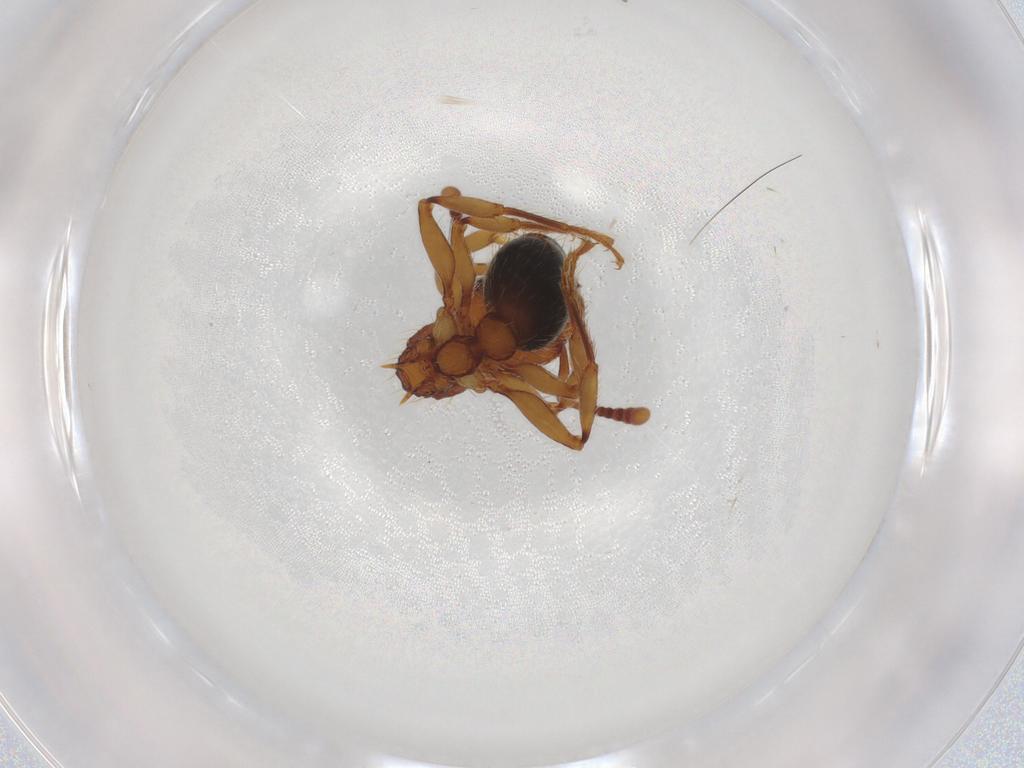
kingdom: Animalia
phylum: Arthropoda
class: Insecta
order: Hymenoptera
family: Formicidae
